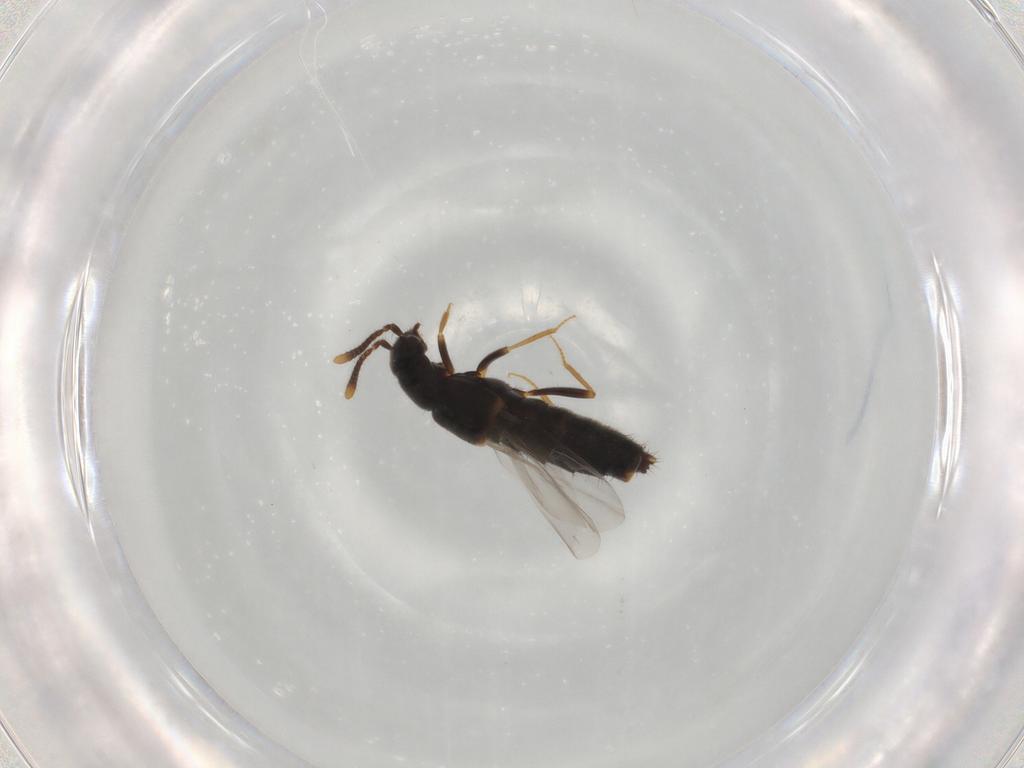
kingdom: Animalia
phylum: Arthropoda
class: Insecta
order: Coleoptera
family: Staphylinidae
